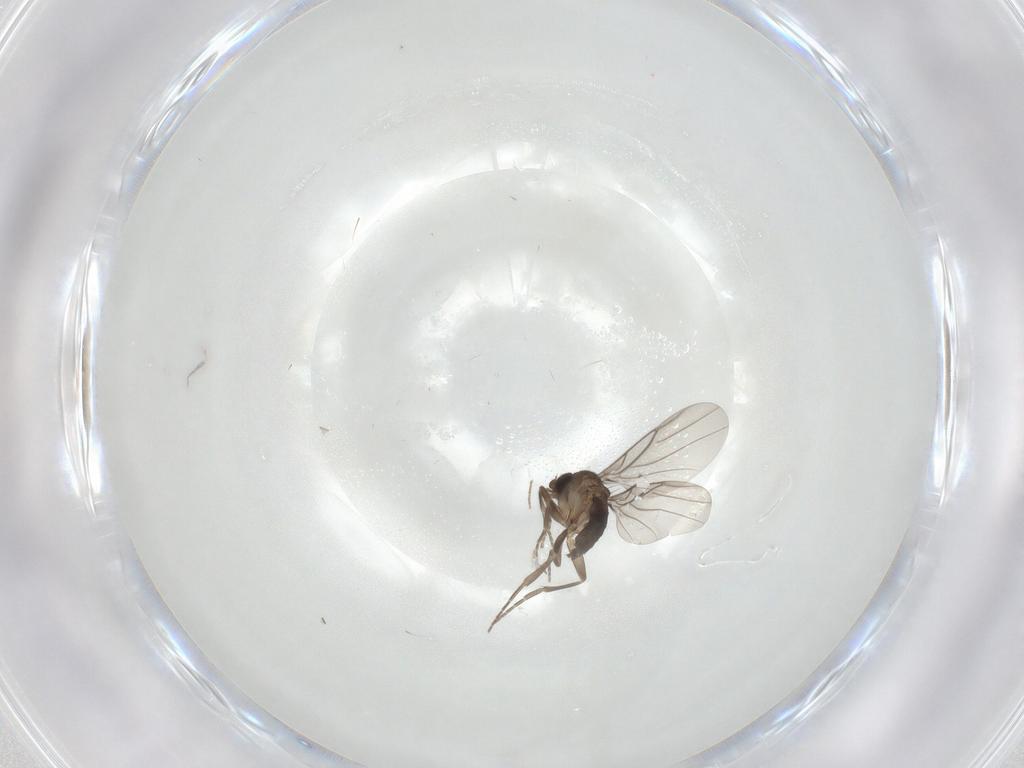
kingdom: Animalia
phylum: Arthropoda
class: Insecta
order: Diptera
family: Chironomidae
